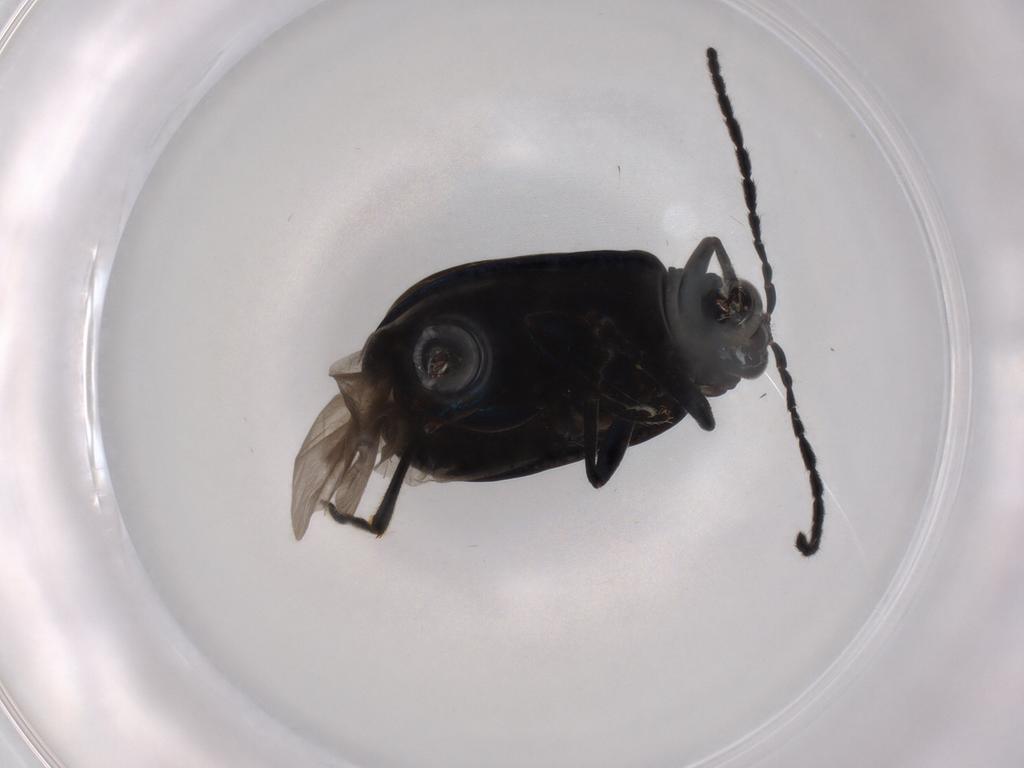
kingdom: Animalia
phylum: Arthropoda
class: Insecta
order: Coleoptera
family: Chrysomelidae
